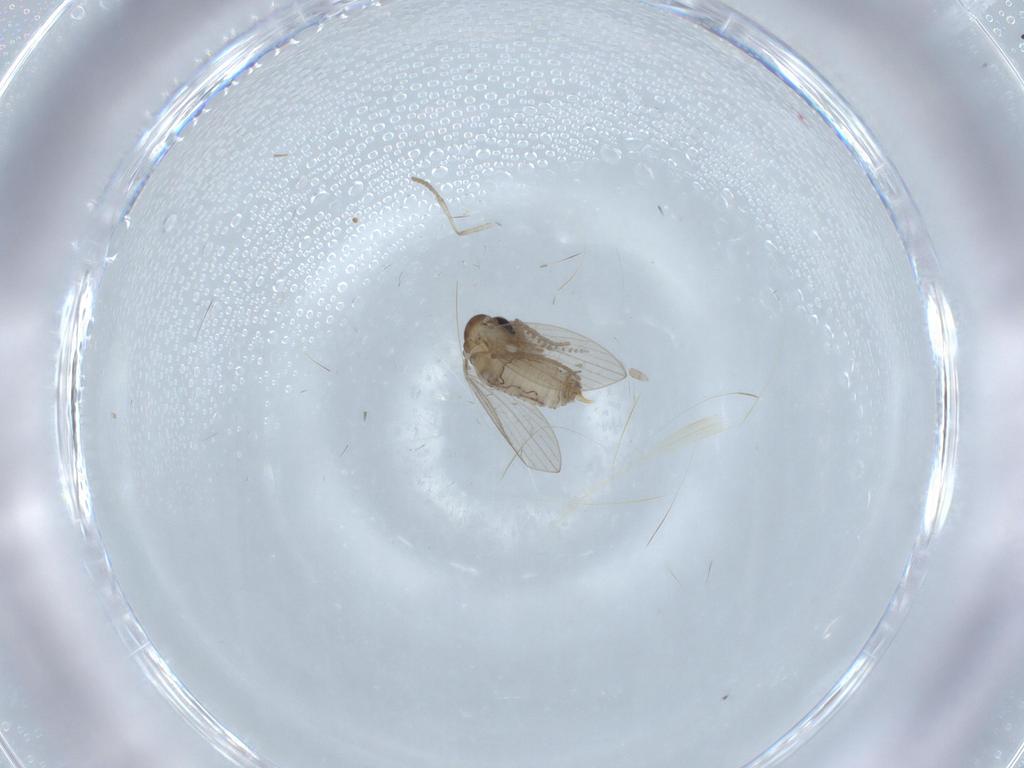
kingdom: Animalia
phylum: Arthropoda
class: Insecta
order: Diptera
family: Psychodidae
